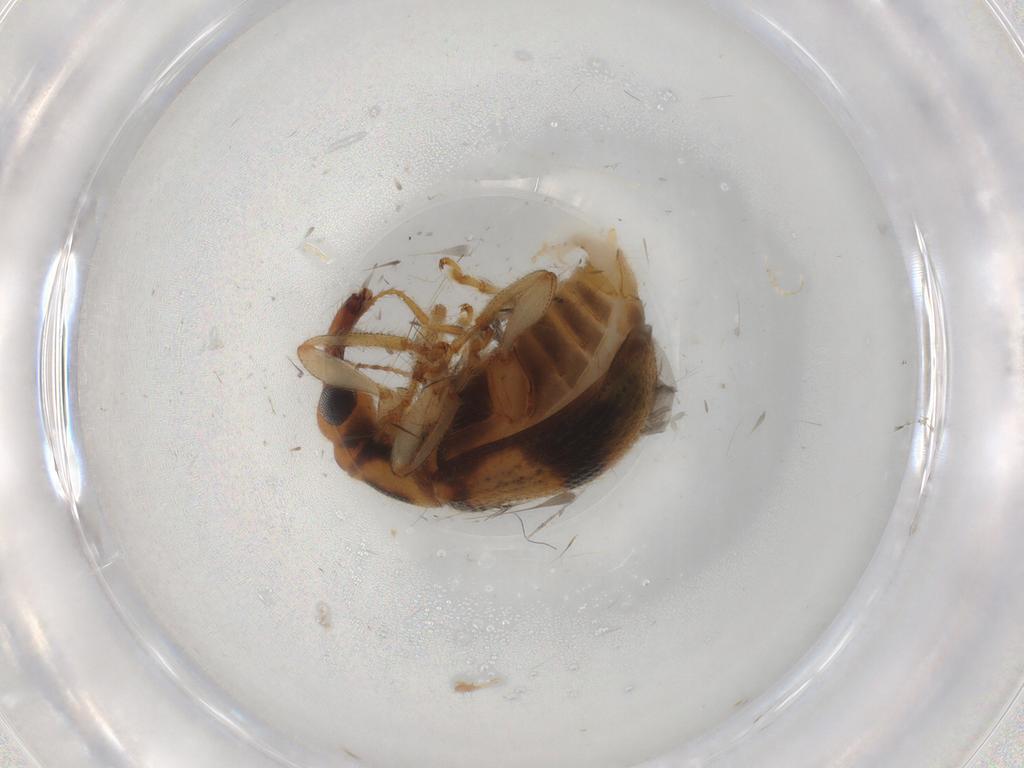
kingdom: Animalia
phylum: Arthropoda
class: Insecta
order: Coleoptera
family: Attelabidae
